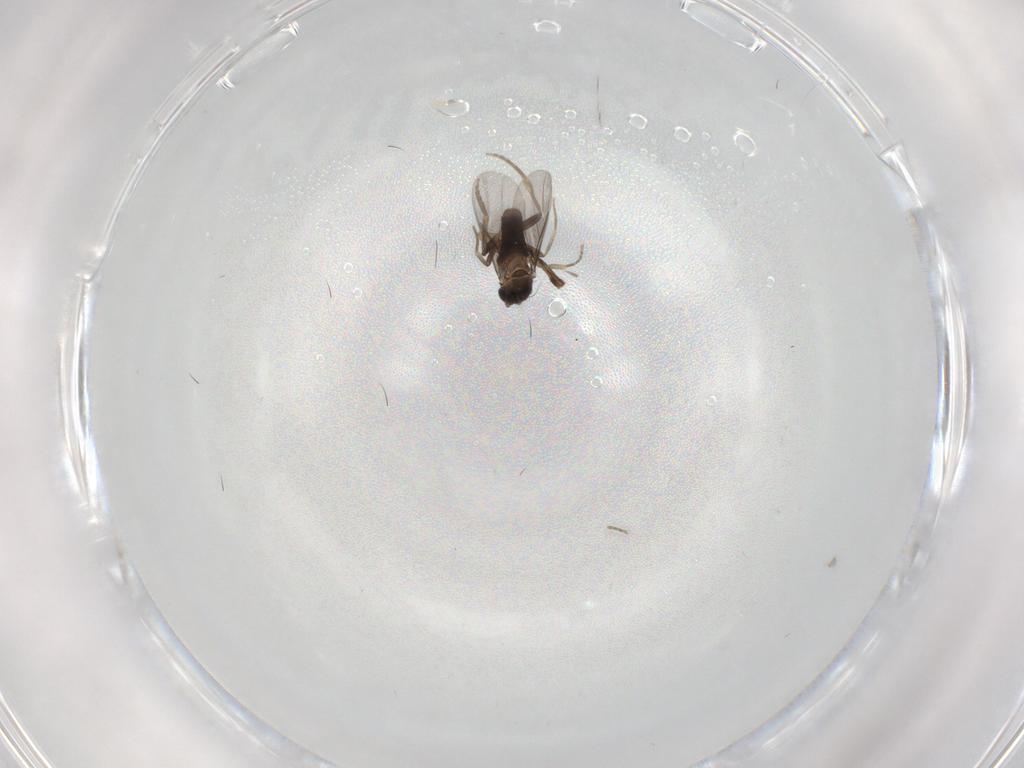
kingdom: Animalia
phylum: Arthropoda
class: Insecta
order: Diptera
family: Cecidomyiidae
